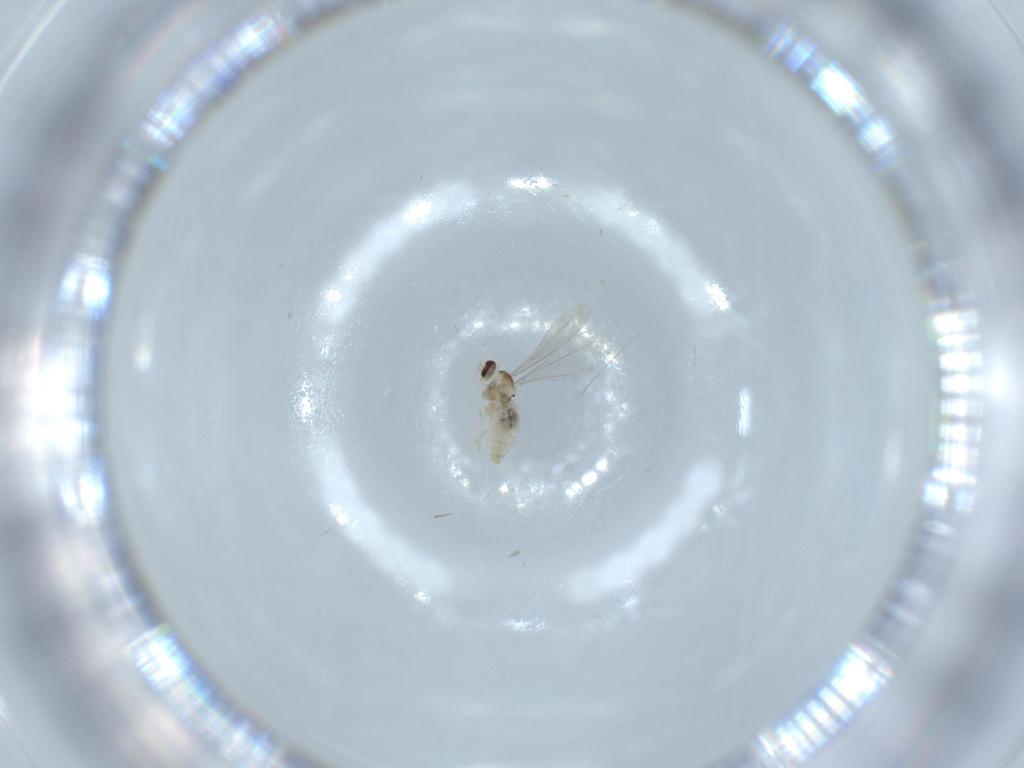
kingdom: Animalia
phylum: Arthropoda
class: Insecta
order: Diptera
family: Cecidomyiidae
